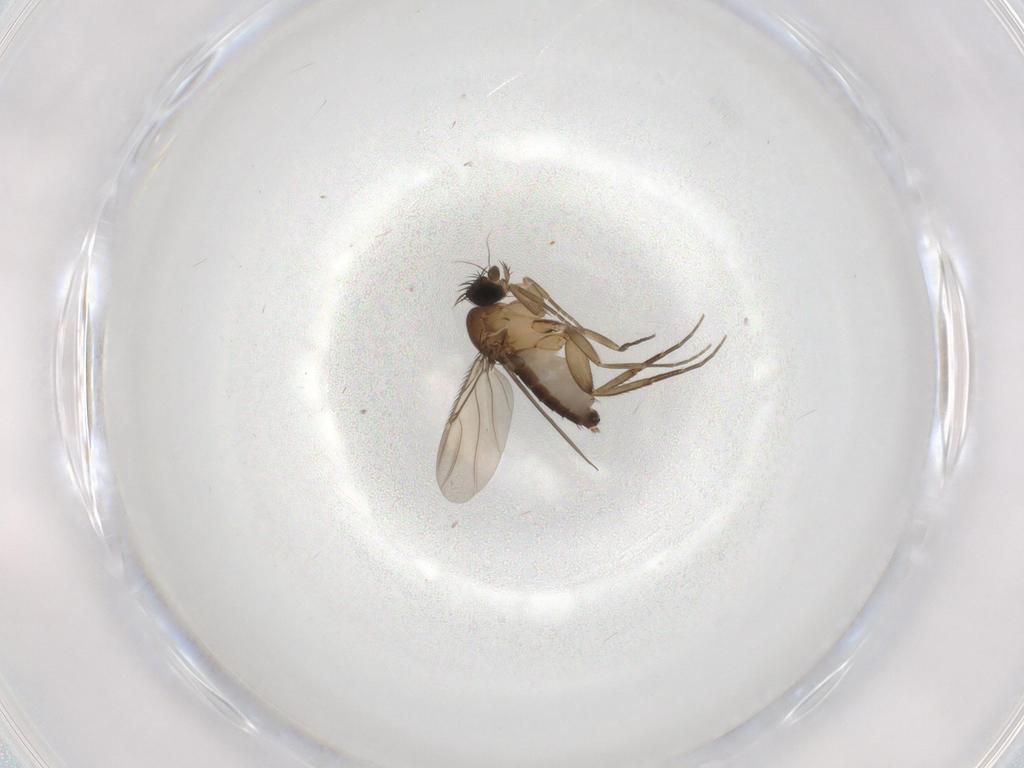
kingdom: Animalia
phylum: Arthropoda
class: Insecta
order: Diptera
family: Phoridae
